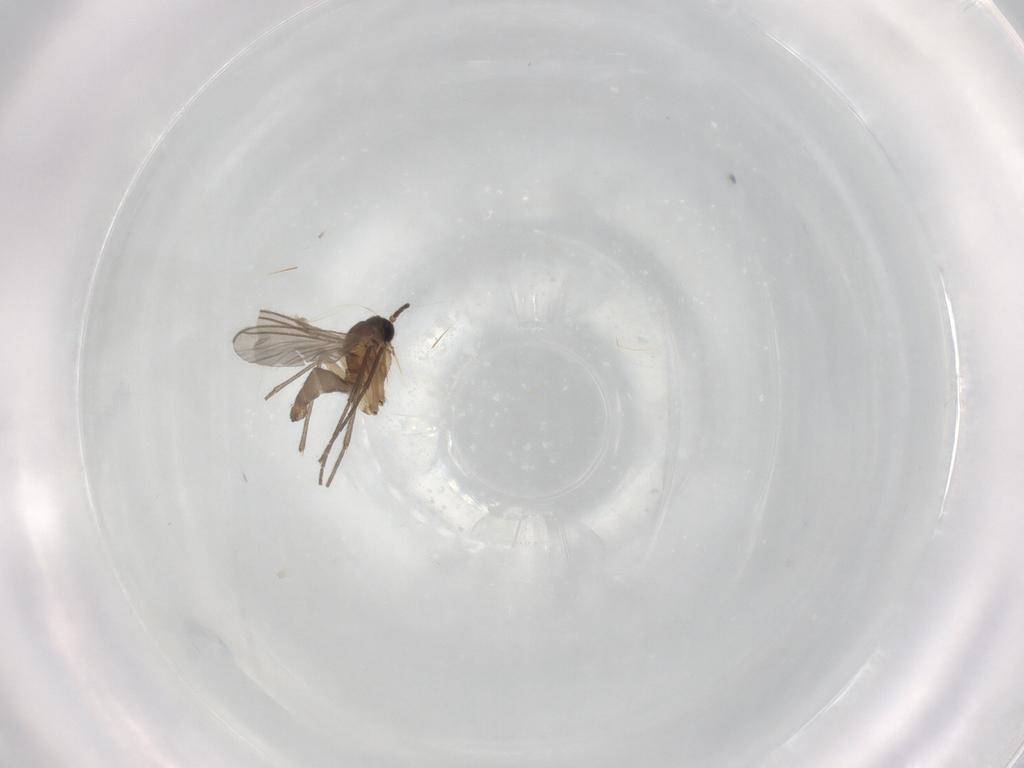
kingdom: Animalia
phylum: Arthropoda
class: Insecta
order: Diptera
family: Sciaridae
